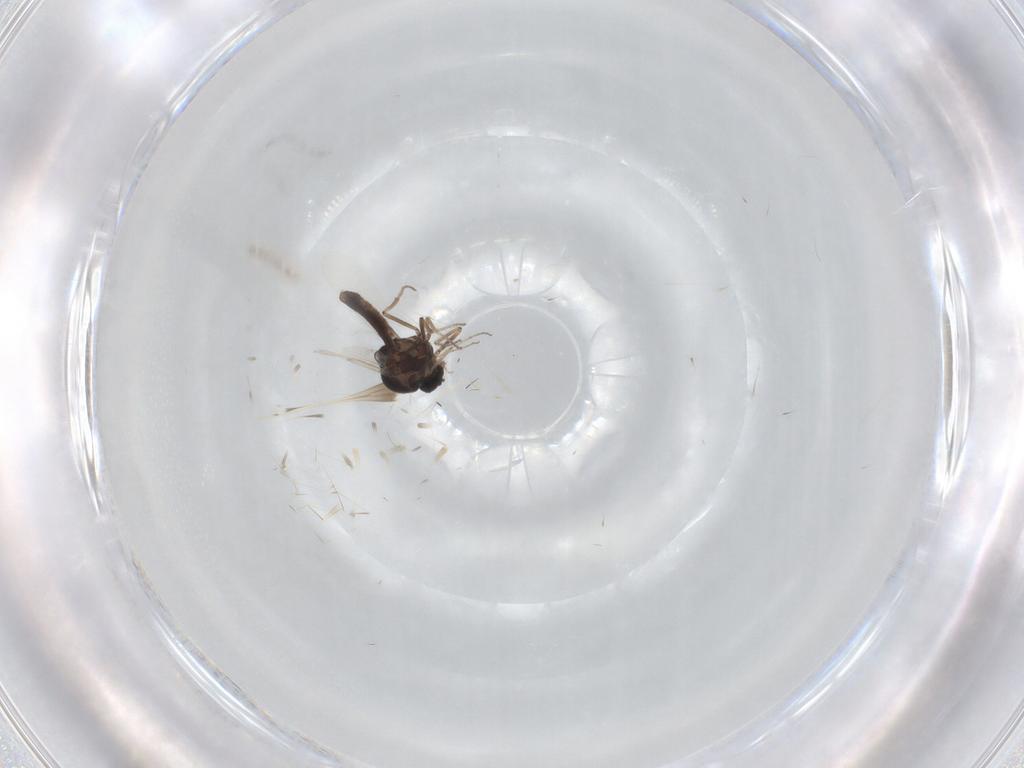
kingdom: Animalia
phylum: Arthropoda
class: Insecta
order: Diptera
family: Ceratopogonidae
